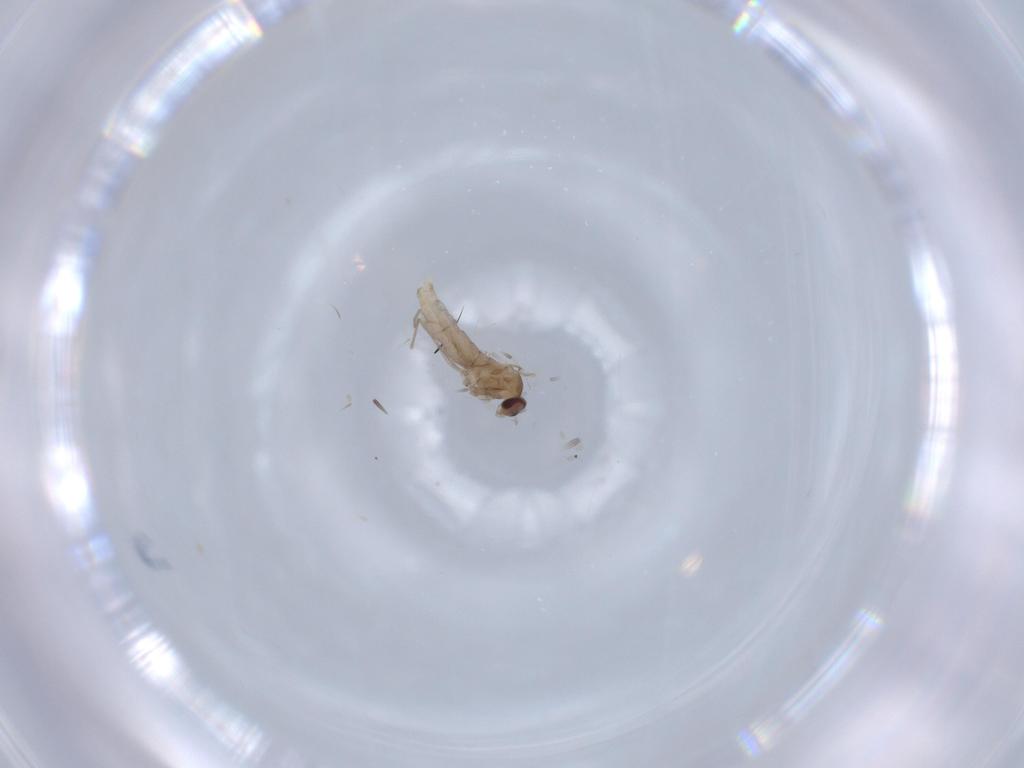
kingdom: Animalia
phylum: Arthropoda
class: Insecta
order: Diptera
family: Cecidomyiidae
